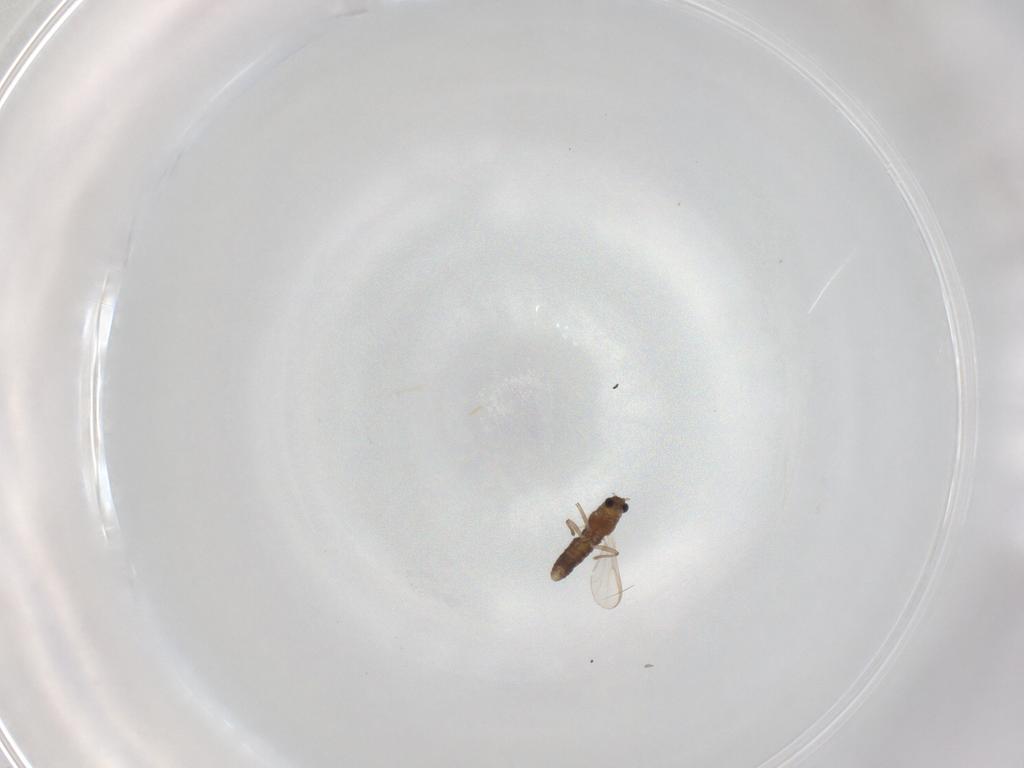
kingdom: Animalia
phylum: Arthropoda
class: Insecta
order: Diptera
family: Chironomidae
